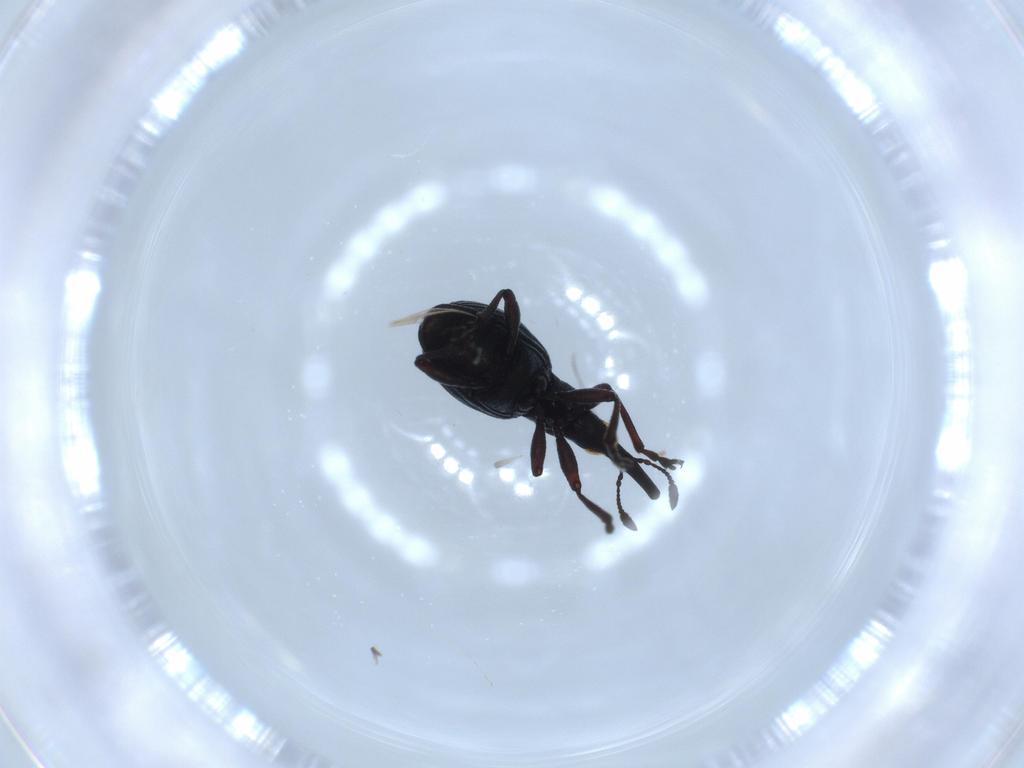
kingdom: Animalia
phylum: Arthropoda
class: Insecta
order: Coleoptera
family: Brentidae
